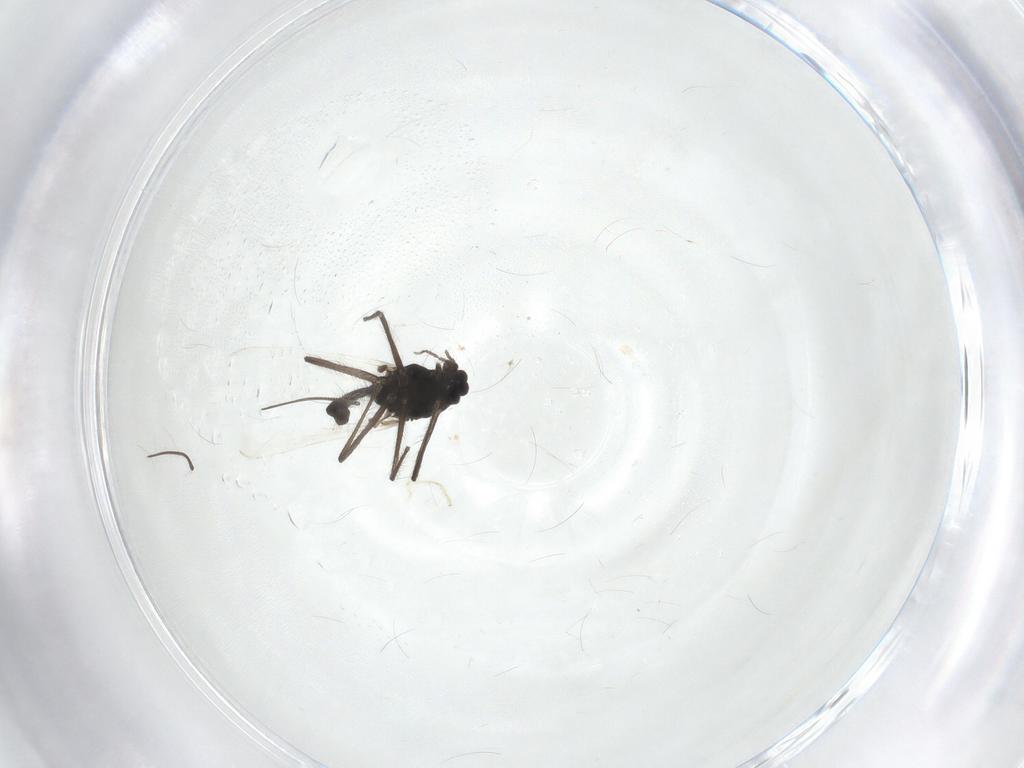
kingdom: Animalia
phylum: Arthropoda
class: Insecta
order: Diptera
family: Chironomidae
